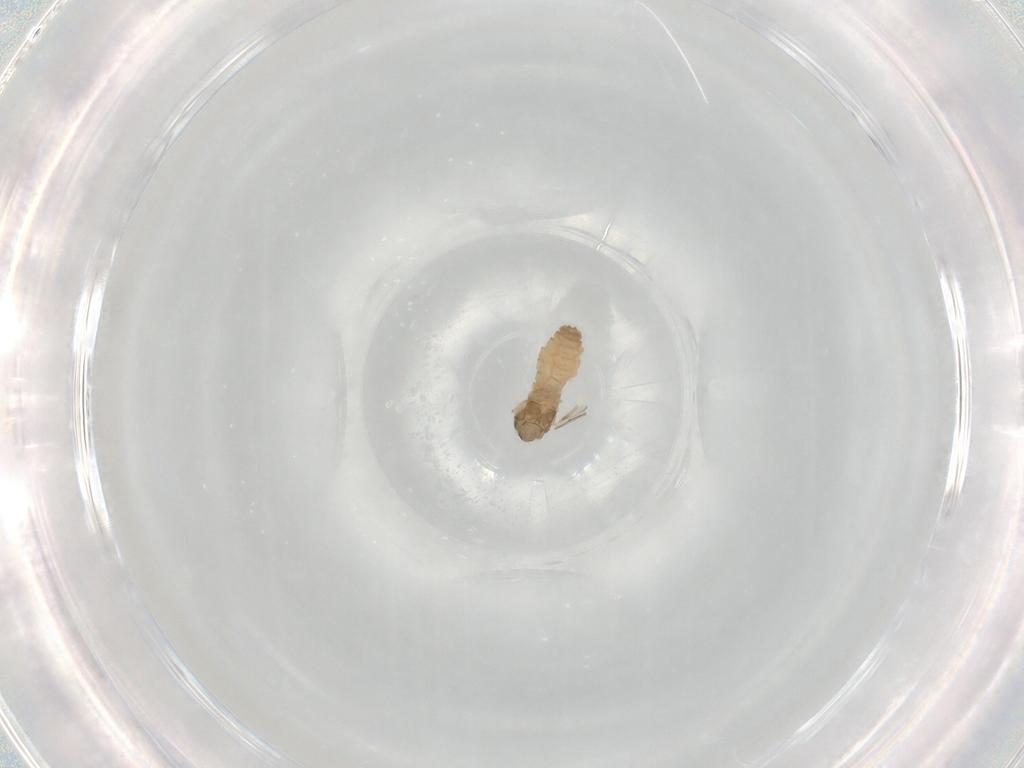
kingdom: Animalia
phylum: Arthropoda
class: Insecta
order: Diptera
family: Cecidomyiidae
